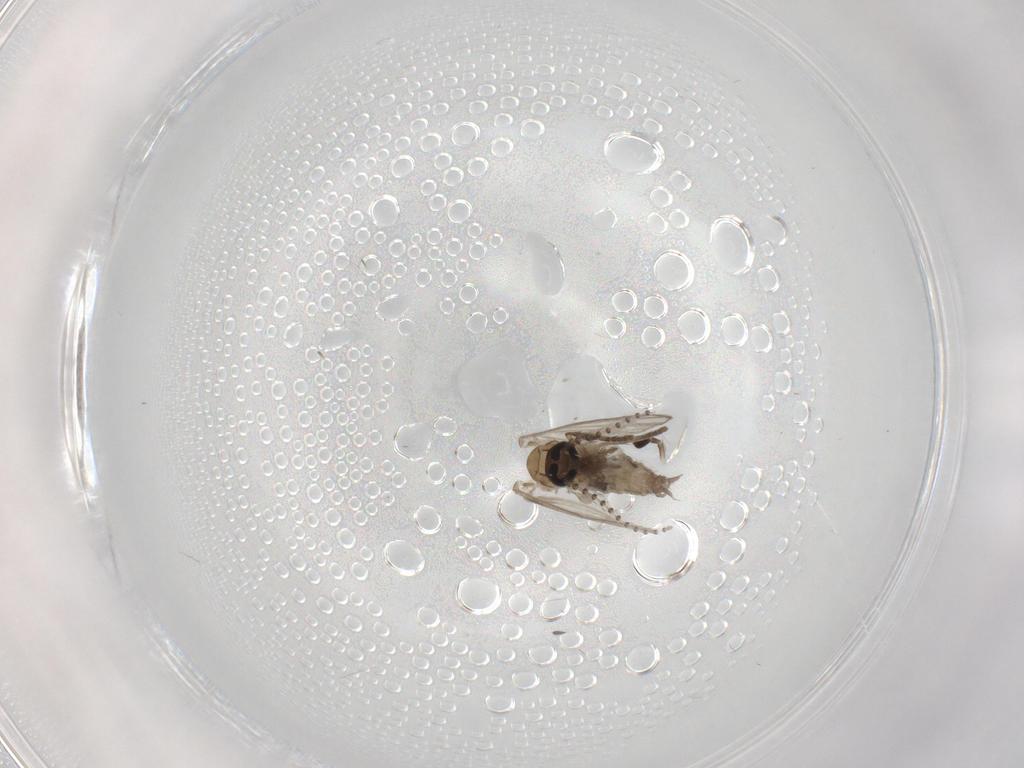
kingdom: Animalia
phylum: Arthropoda
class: Insecta
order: Diptera
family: Psychodidae
